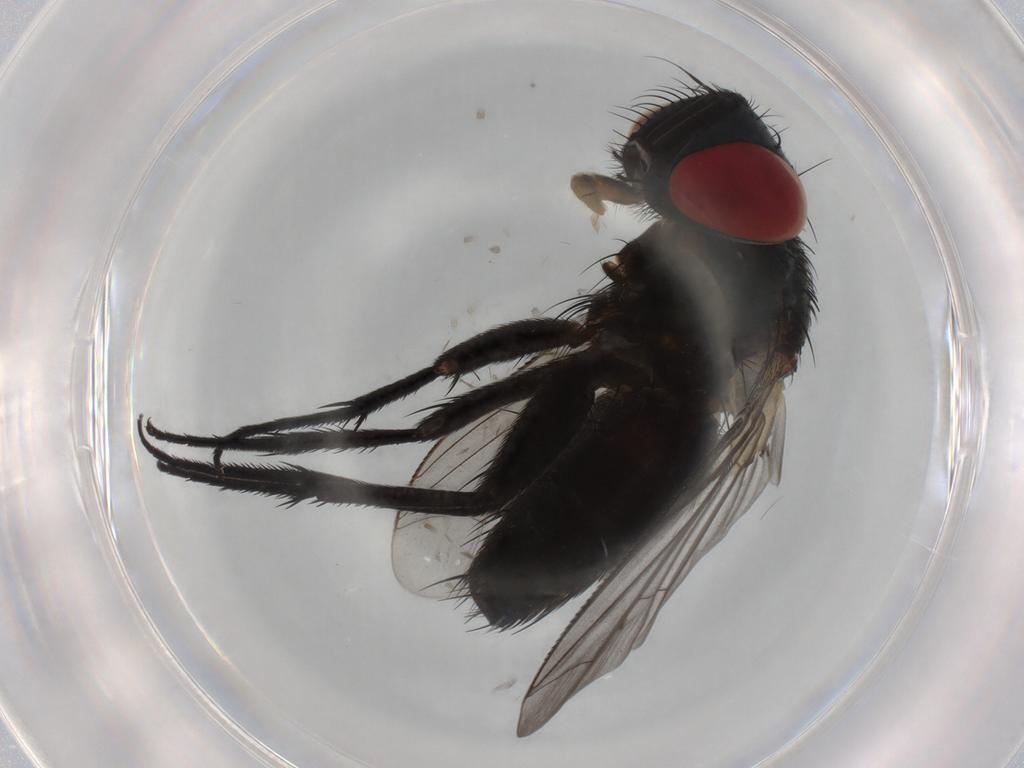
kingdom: Animalia
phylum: Arthropoda
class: Insecta
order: Diptera
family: Sarcophagidae
